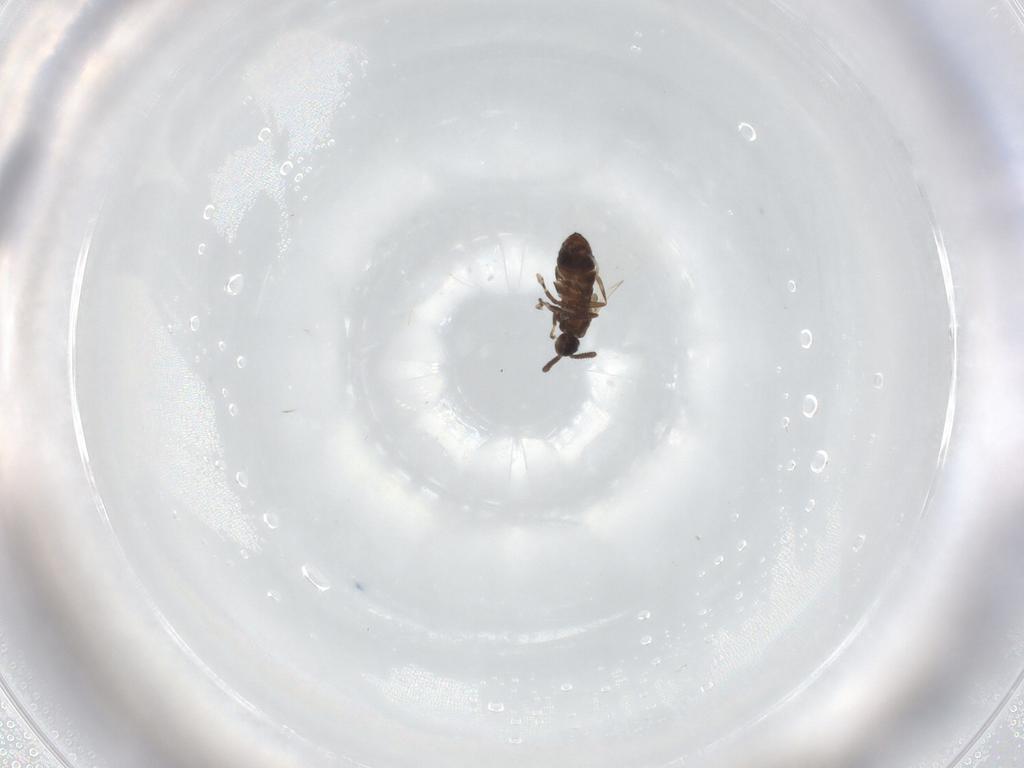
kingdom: Animalia
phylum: Arthropoda
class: Insecta
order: Diptera
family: Scatopsidae
